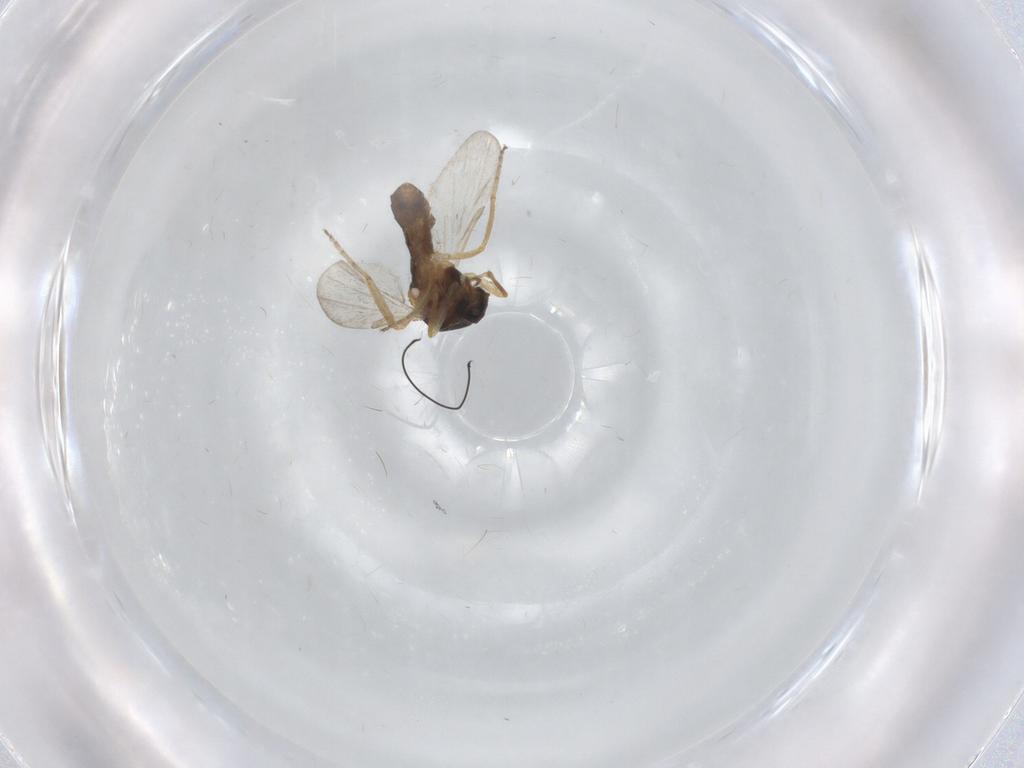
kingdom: Animalia
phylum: Arthropoda
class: Insecta
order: Diptera
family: Ceratopogonidae
